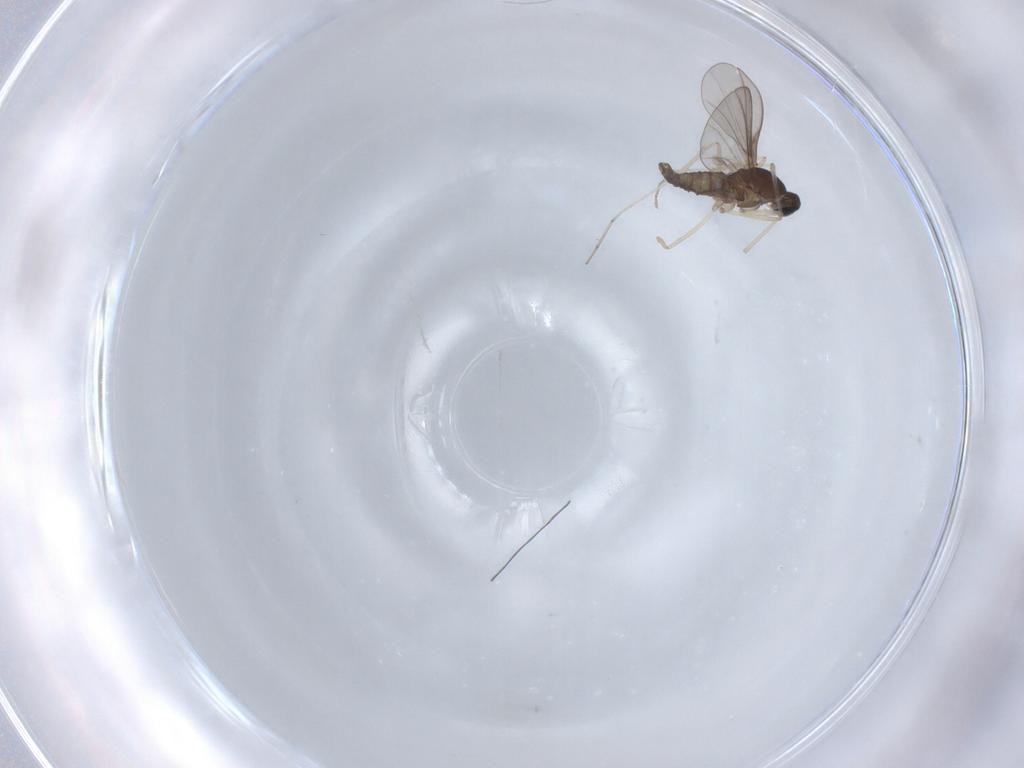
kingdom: Animalia
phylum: Arthropoda
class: Insecta
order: Diptera
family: Sciaridae
